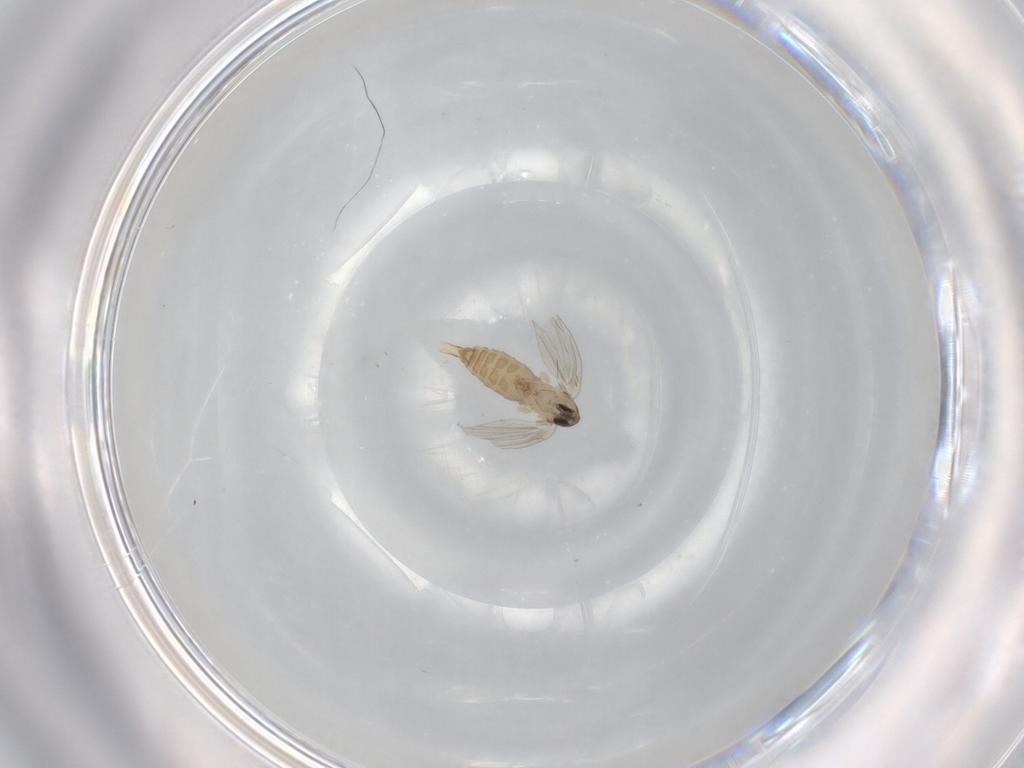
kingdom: Animalia
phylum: Arthropoda
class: Insecta
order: Diptera
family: Psychodidae
